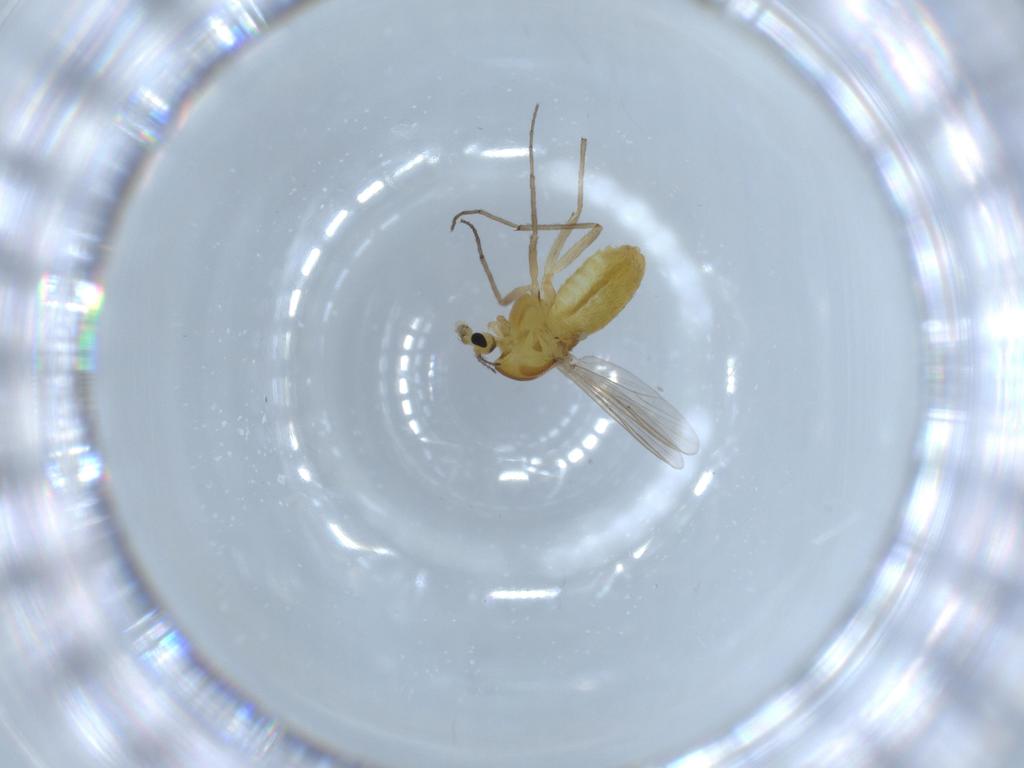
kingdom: Animalia
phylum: Arthropoda
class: Insecta
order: Diptera
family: Chironomidae
